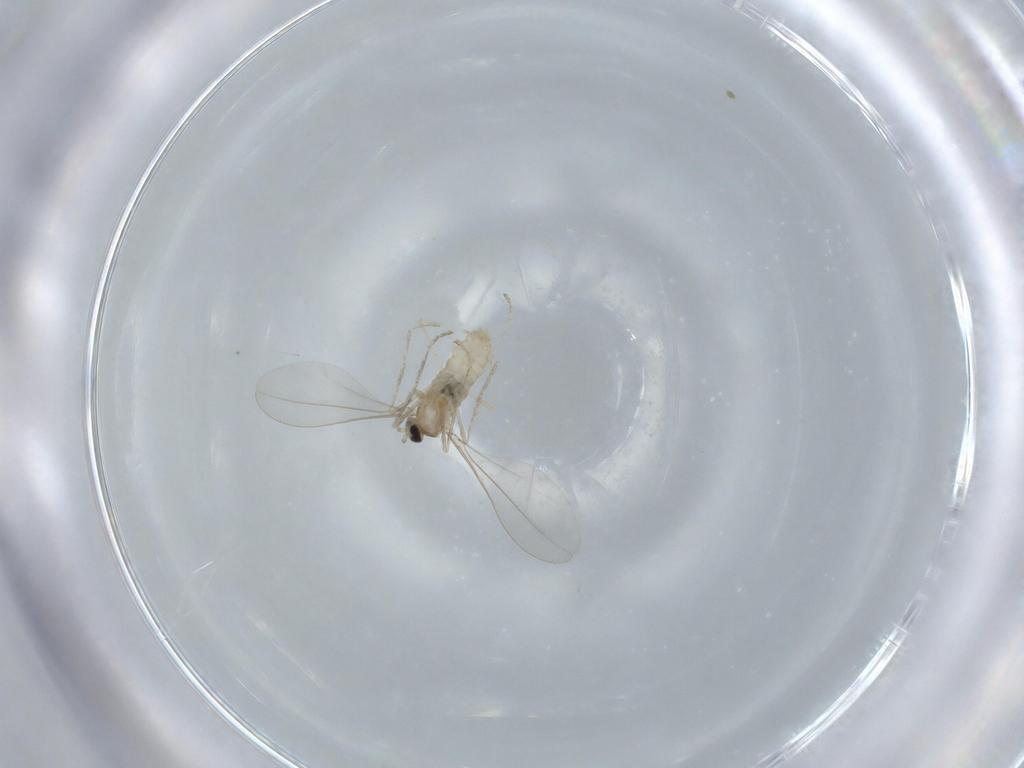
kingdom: Animalia
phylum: Arthropoda
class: Insecta
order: Diptera
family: Cecidomyiidae
